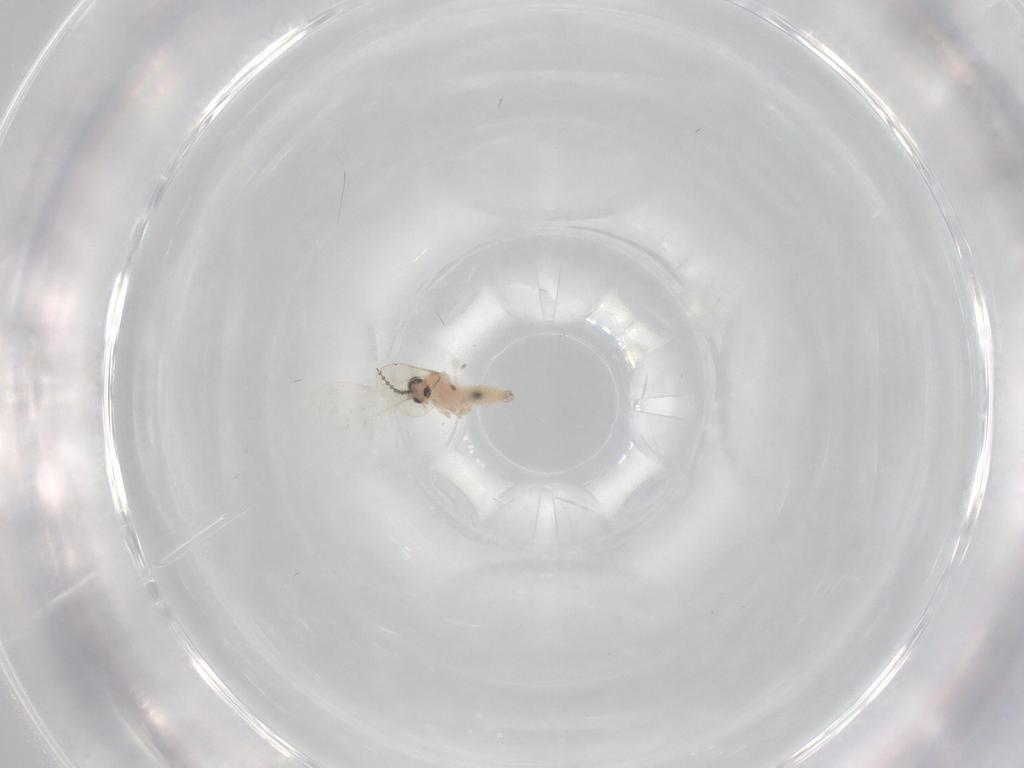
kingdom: Animalia
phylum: Arthropoda
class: Insecta
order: Diptera
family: Cecidomyiidae
